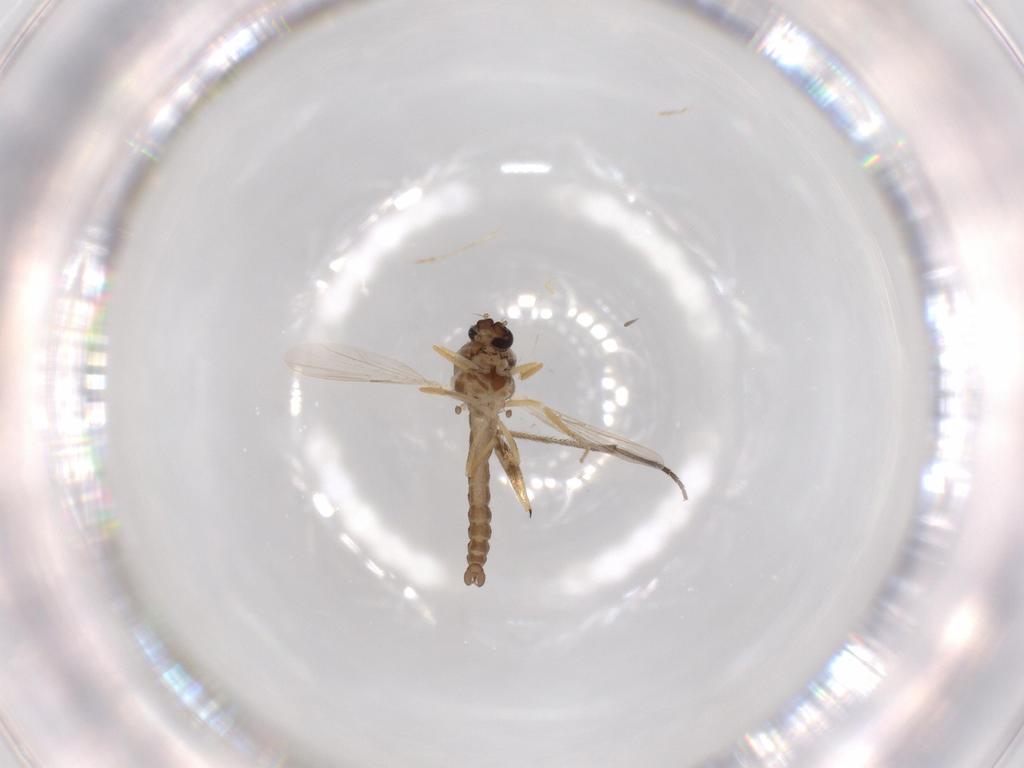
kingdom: Animalia
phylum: Arthropoda
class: Insecta
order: Diptera
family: Ceratopogonidae
